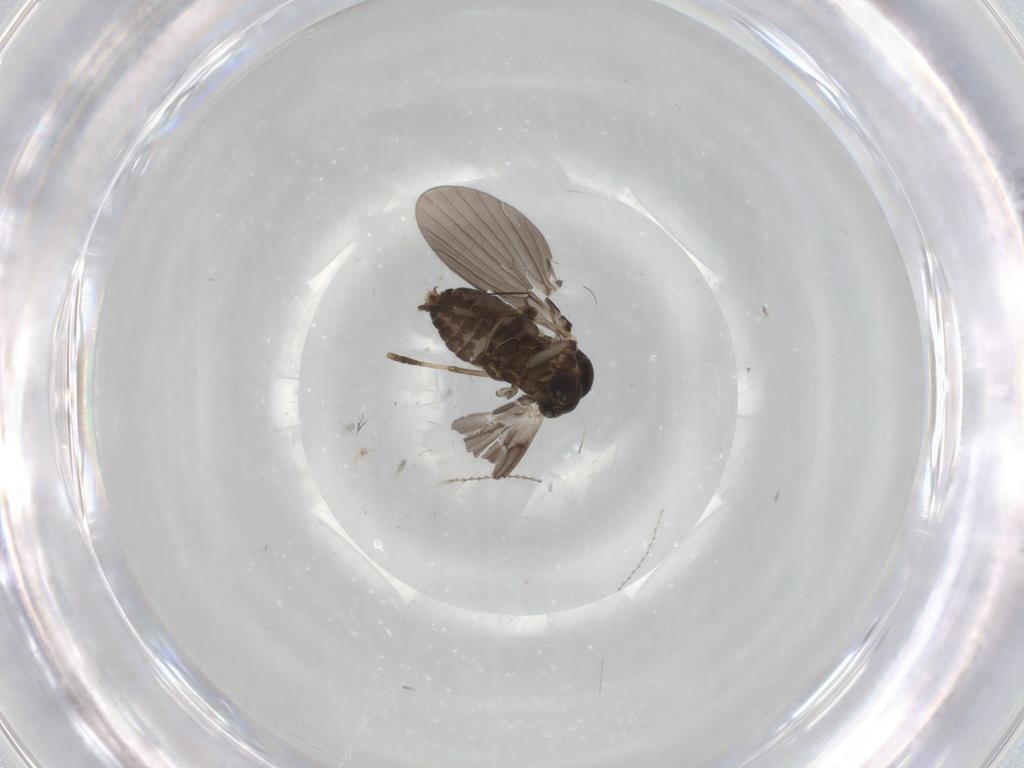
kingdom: Animalia
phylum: Arthropoda
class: Insecta
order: Diptera
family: Psychodidae
